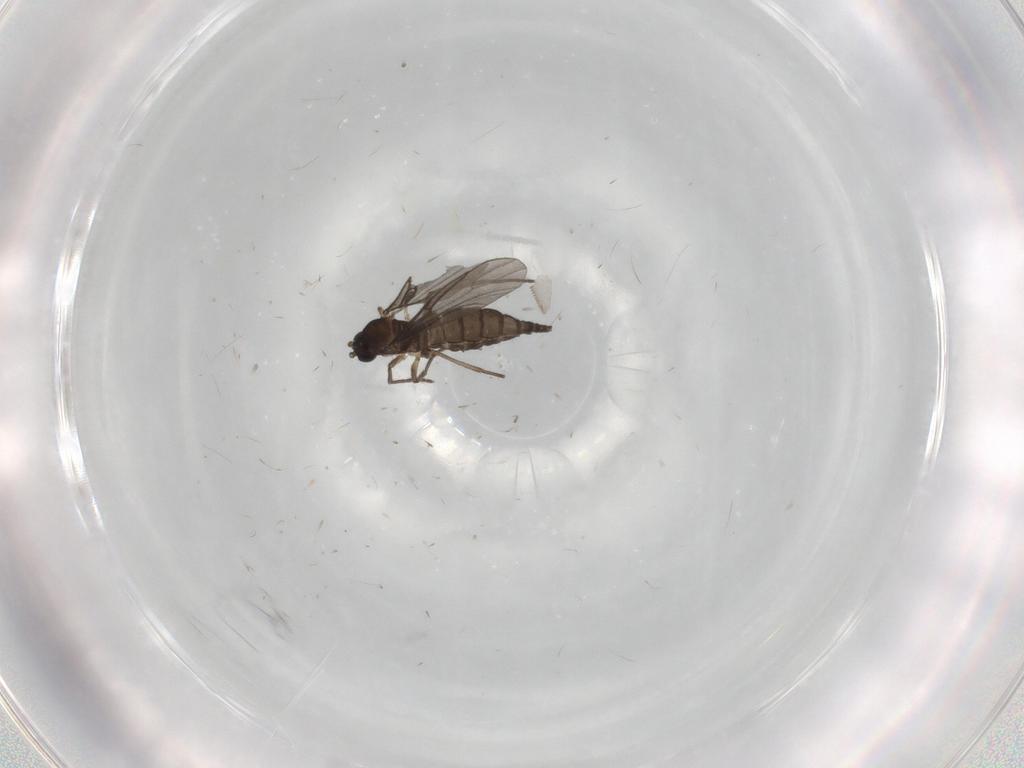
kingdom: Animalia
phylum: Arthropoda
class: Insecta
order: Diptera
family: Sciaridae
